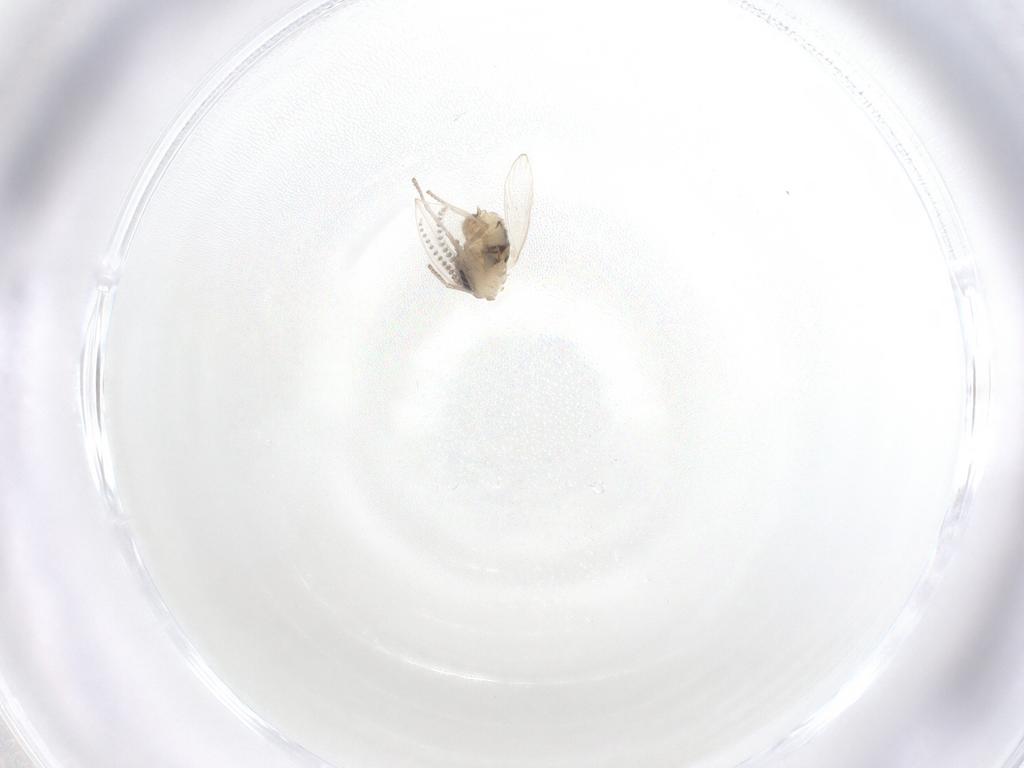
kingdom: Animalia
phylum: Arthropoda
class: Insecta
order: Diptera
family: Psychodidae
